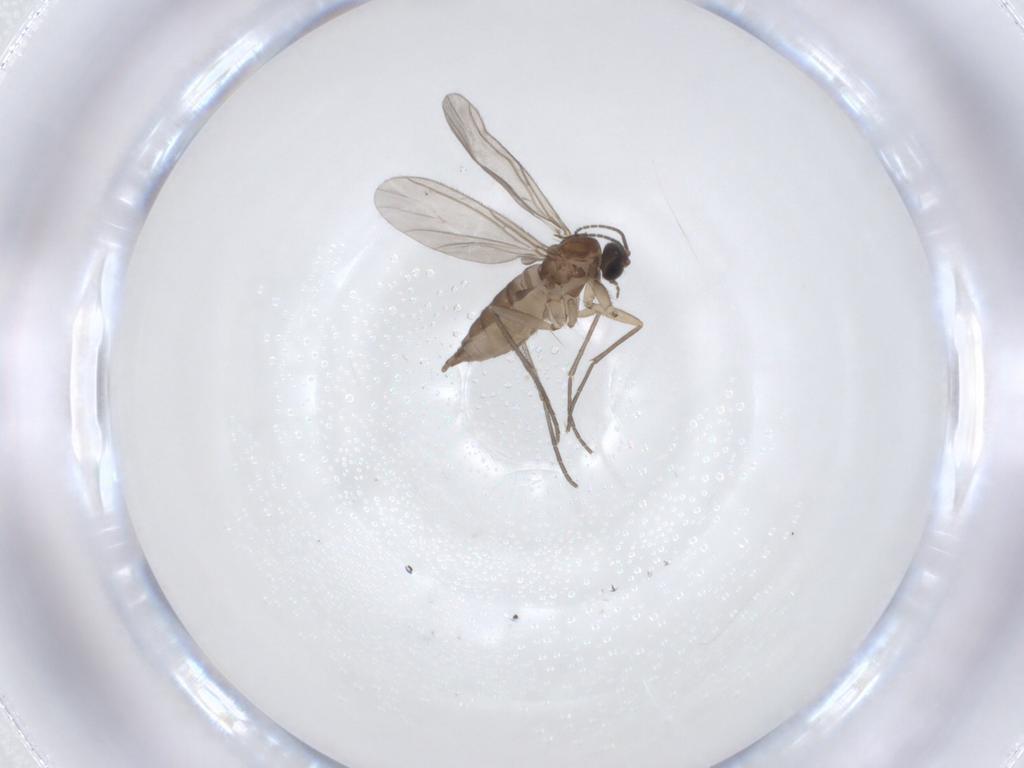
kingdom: Animalia
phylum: Arthropoda
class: Insecta
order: Diptera
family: Sciaridae
